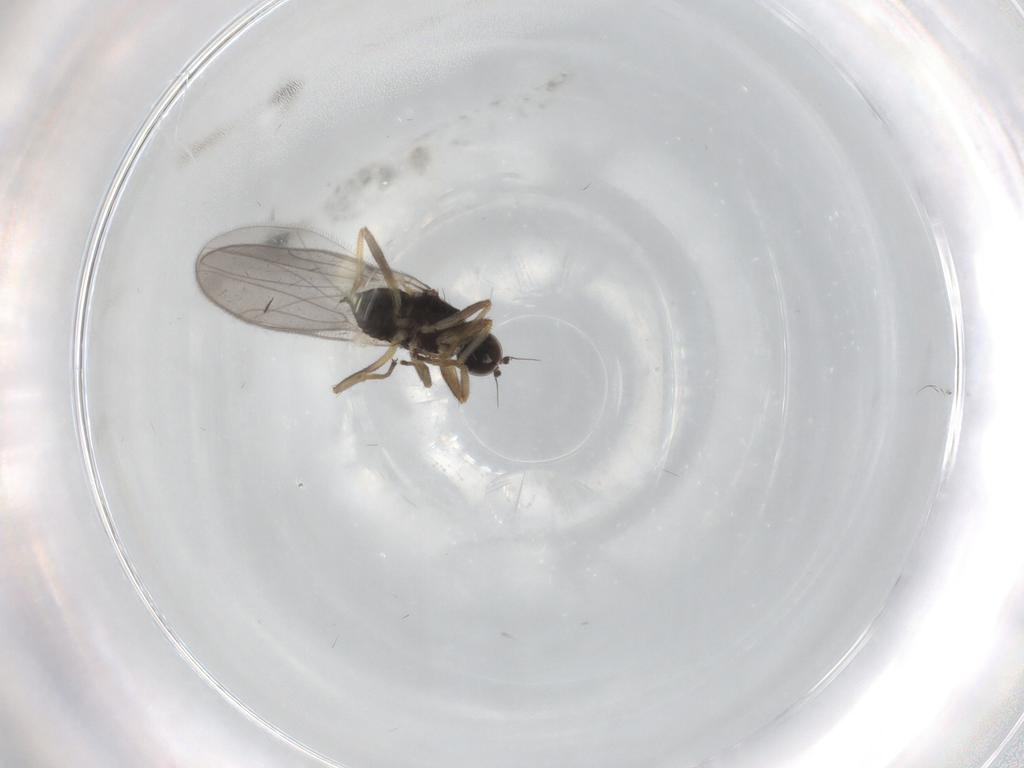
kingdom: Animalia
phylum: Arthropoda
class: Insecta
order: Diptera
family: Hybotidae
